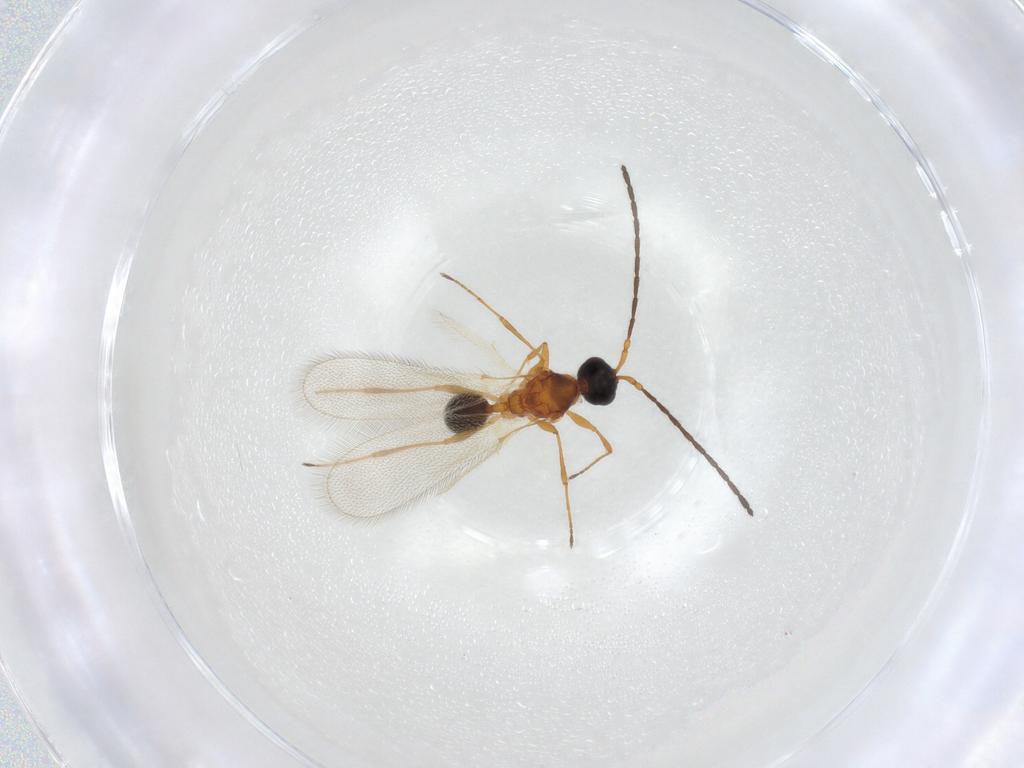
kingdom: Animalia
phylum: Arthropoda
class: Insecta
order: Hymenoptera
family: Diapriidae
